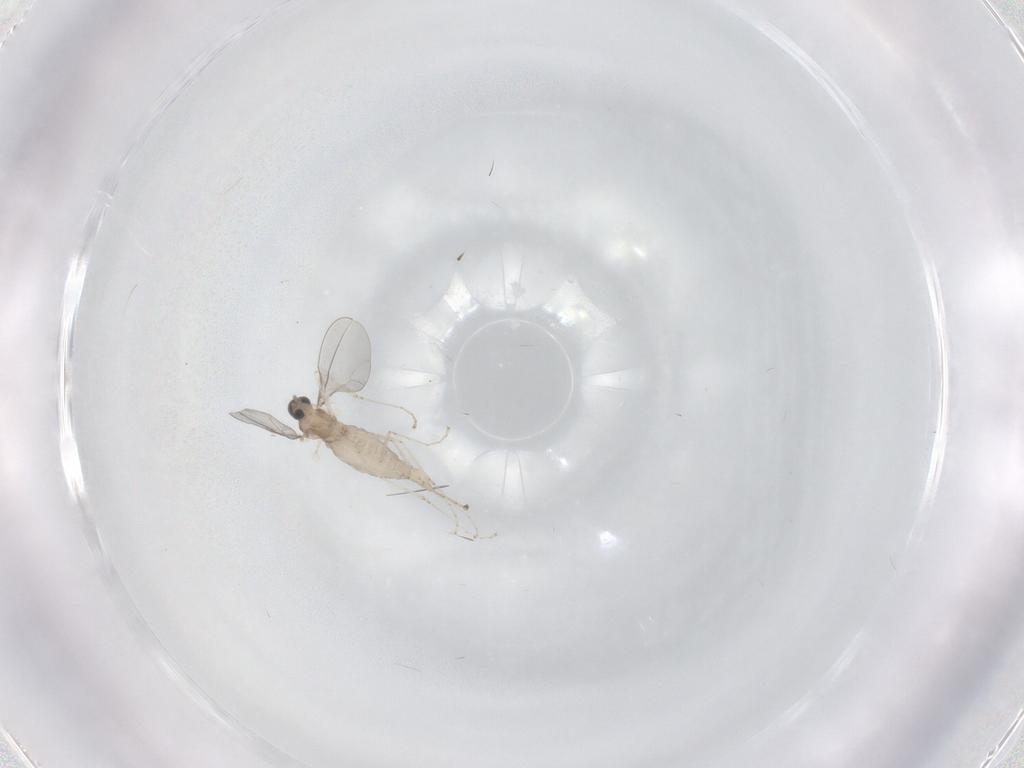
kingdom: Animalia
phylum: Arthropoda
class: Insecta
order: Diptera
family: Cecidomyiidae
